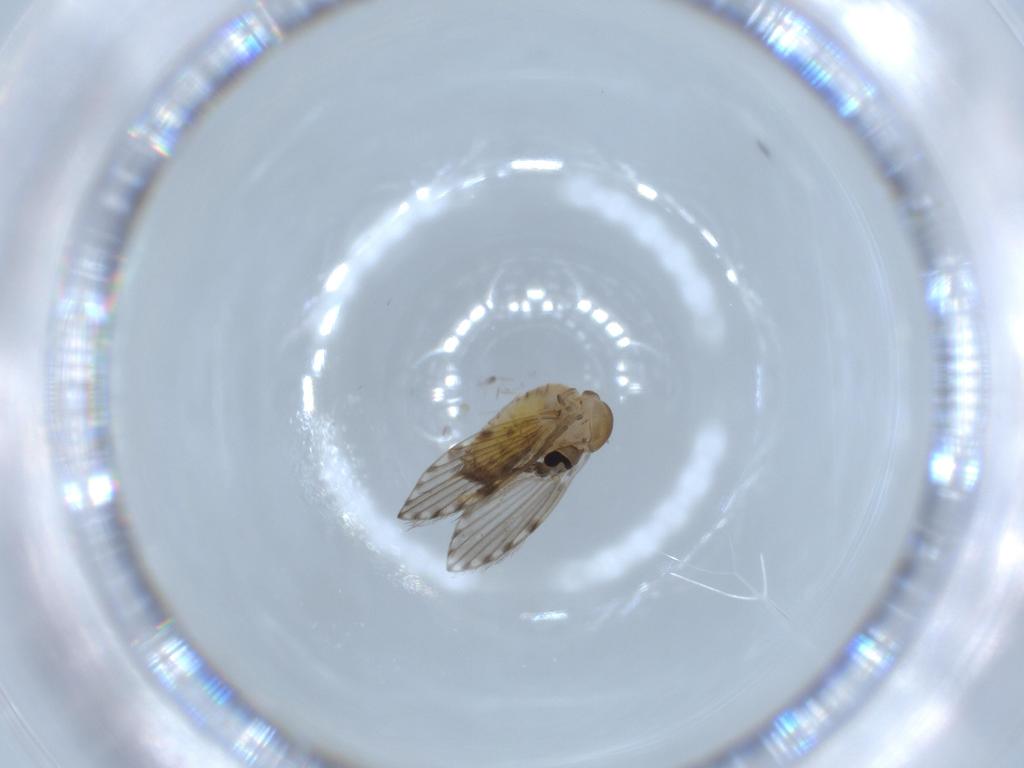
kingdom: Animalia
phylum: Arthropoda
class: Insecta
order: Diptera
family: Psychodidae
